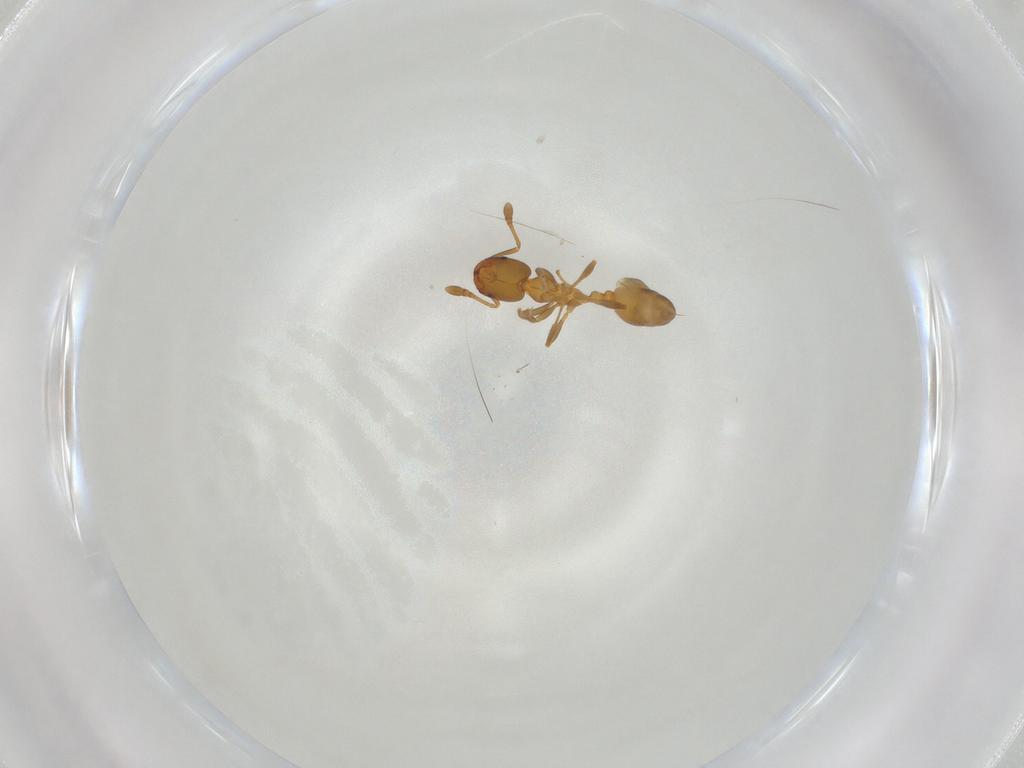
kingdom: Animalia
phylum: Arthropoda
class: Insecta
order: Hymenoptera
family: Formicidae
